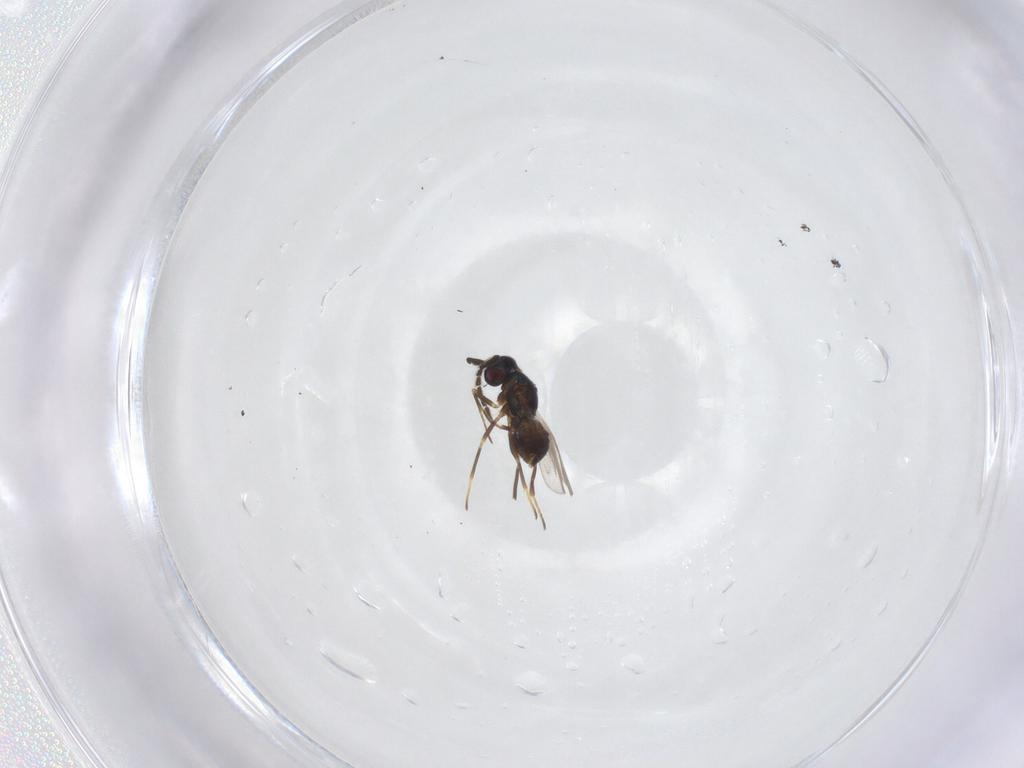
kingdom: Animalia
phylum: Arthropoda
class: Insecta
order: Hymenoptera
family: Encyrtidae
